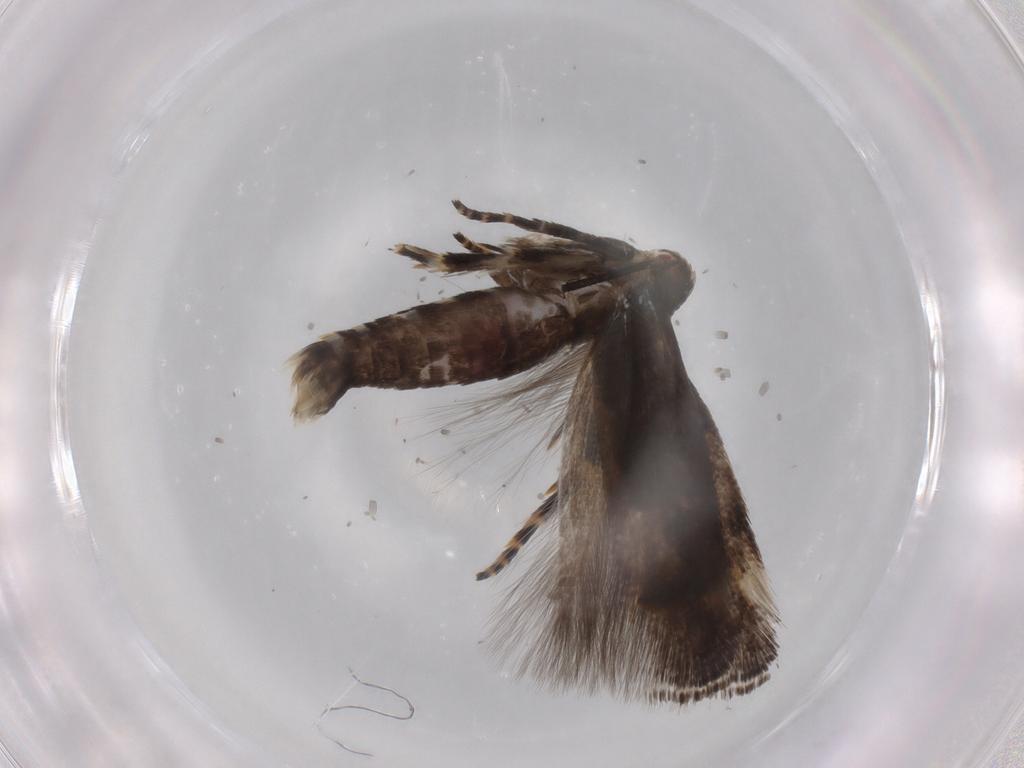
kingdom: Animalia
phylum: Arthropoda
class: Insecta
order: Lepidoptera
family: Momphidae
